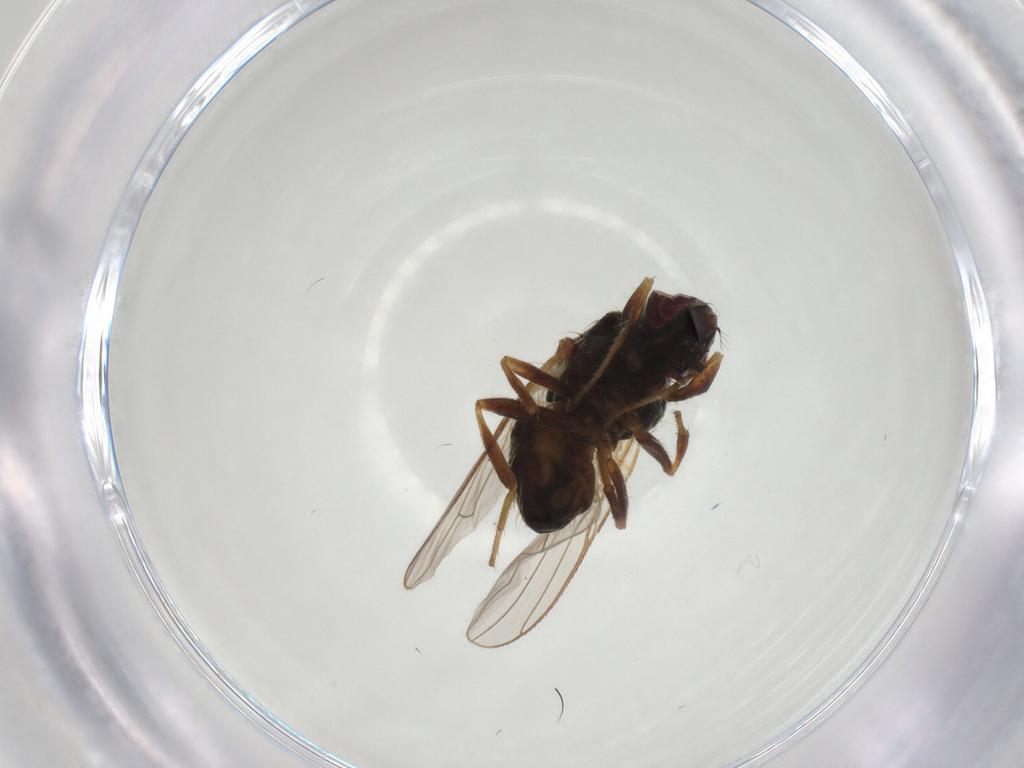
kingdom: Animalia
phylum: Arthropoda
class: Insecta
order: Diptera
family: Muscidae
